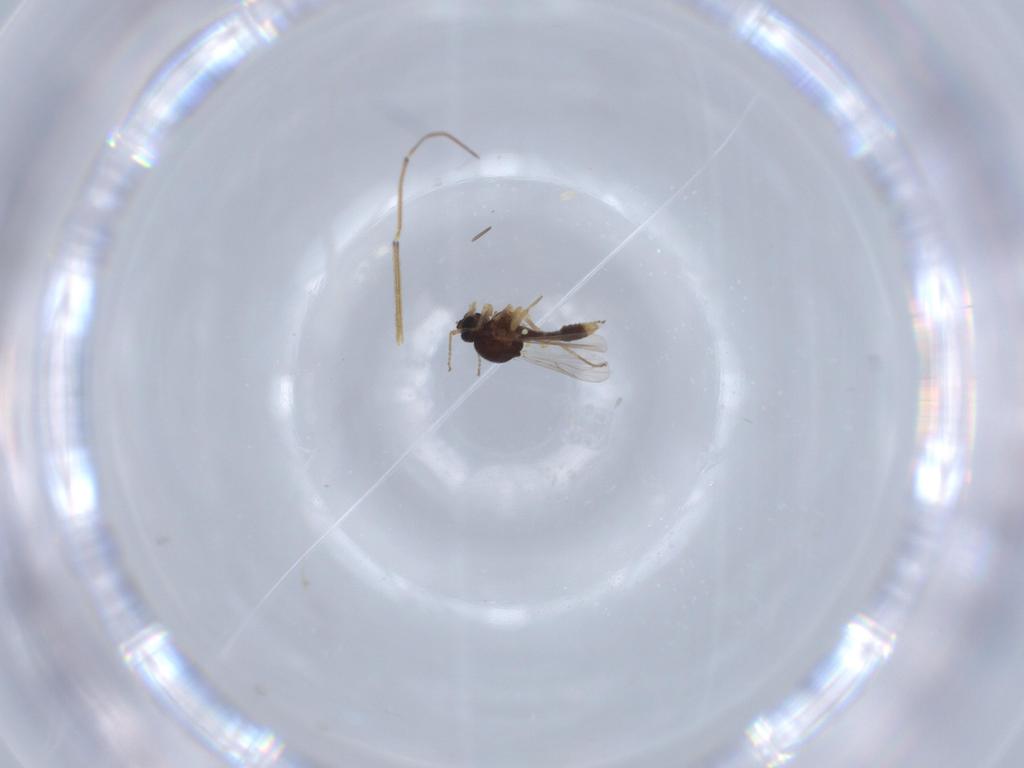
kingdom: Animalia
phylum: Arthropoda
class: Insecta
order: Diptera
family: Ceratopogonidae
